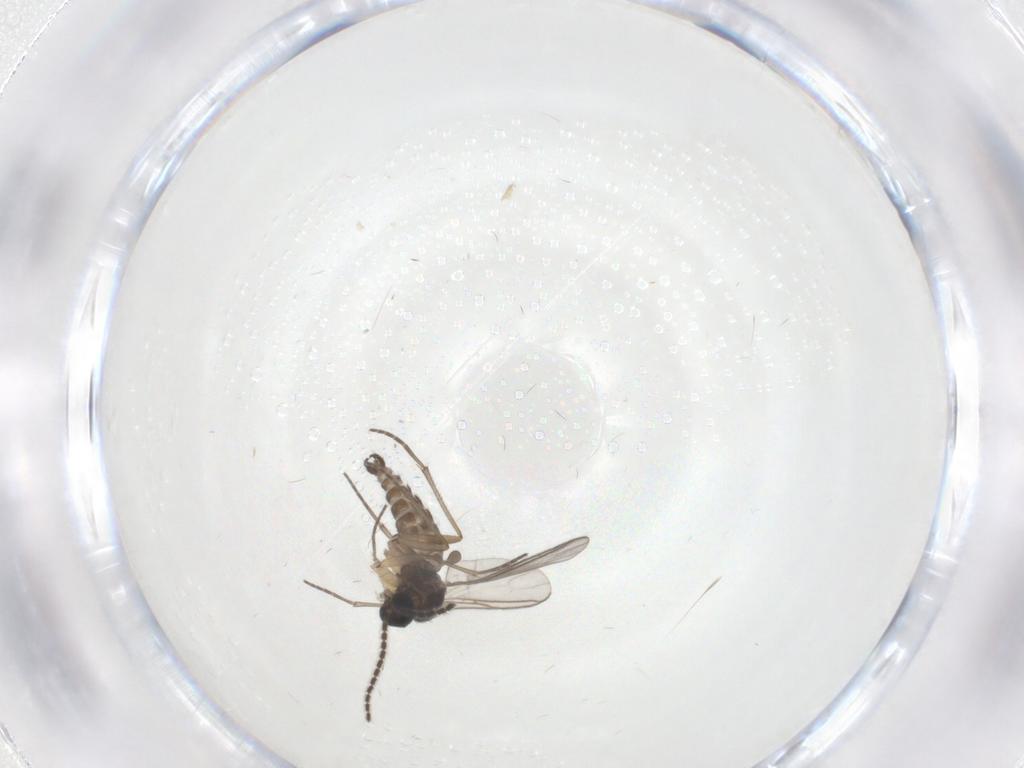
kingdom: Animalia
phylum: Arthropoda
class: Insecta
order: Diptera
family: Sciaridae
